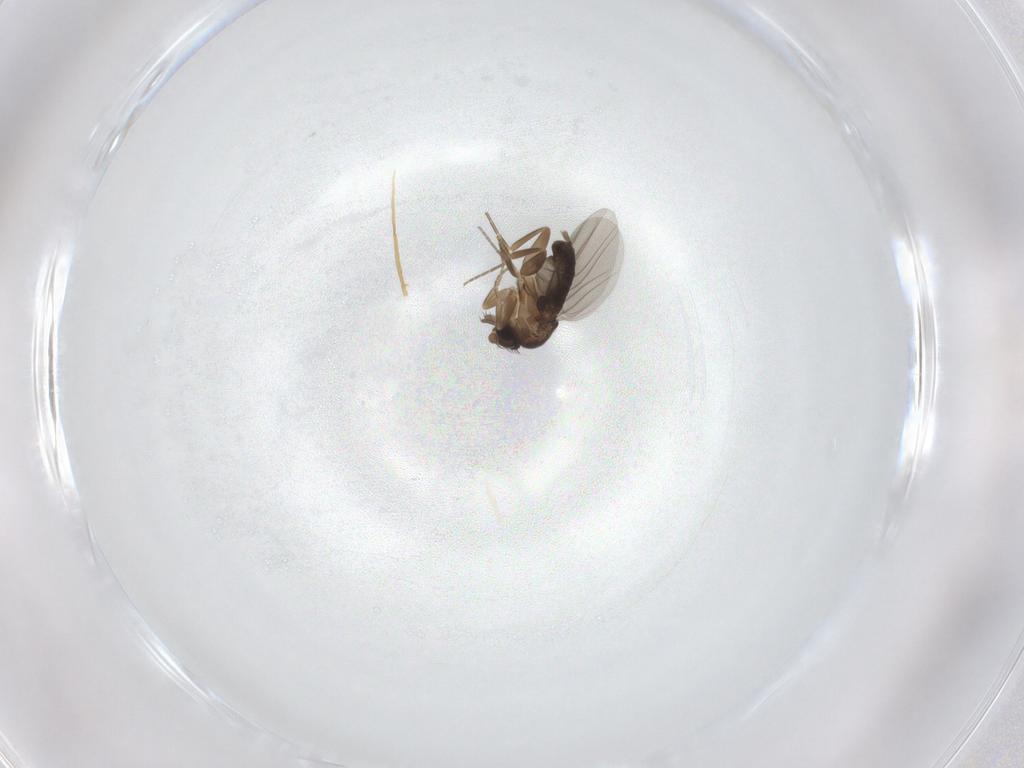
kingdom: Animalia
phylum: Arthropoda
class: Insecta
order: Diptera
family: Phoridae
